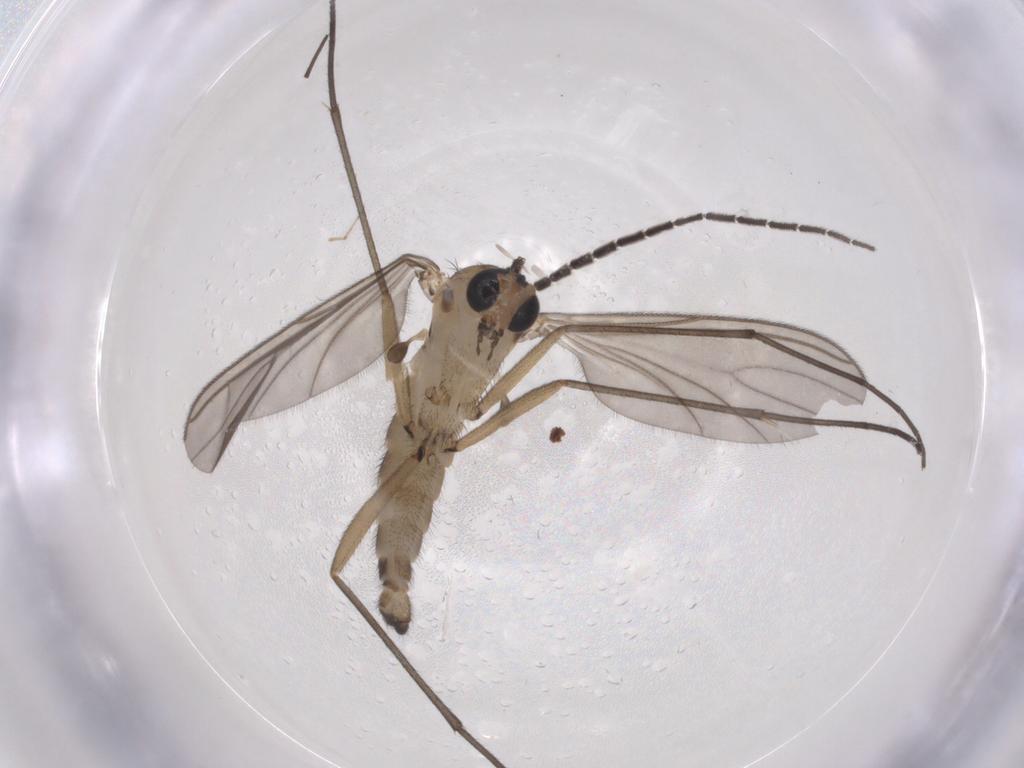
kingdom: Animalia
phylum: Arthropoda
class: Insecta
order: Diptera
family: Sciaridae
